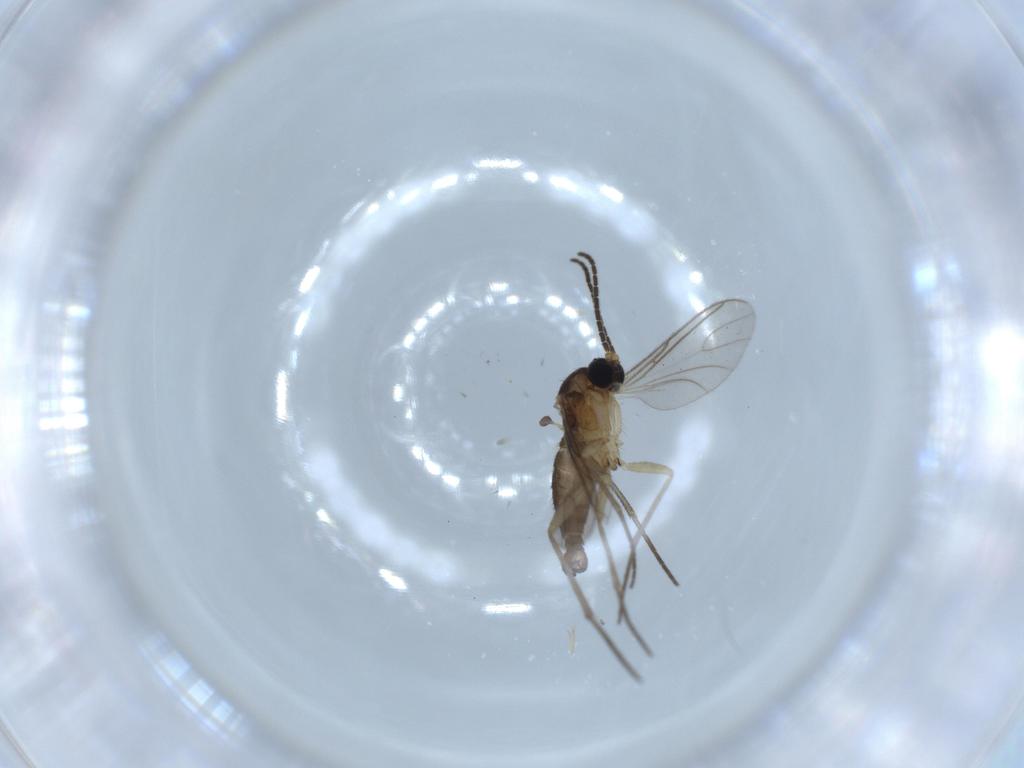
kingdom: Animalia
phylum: Arthropoda
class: Insecta
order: Diptera
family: Sciaridae
